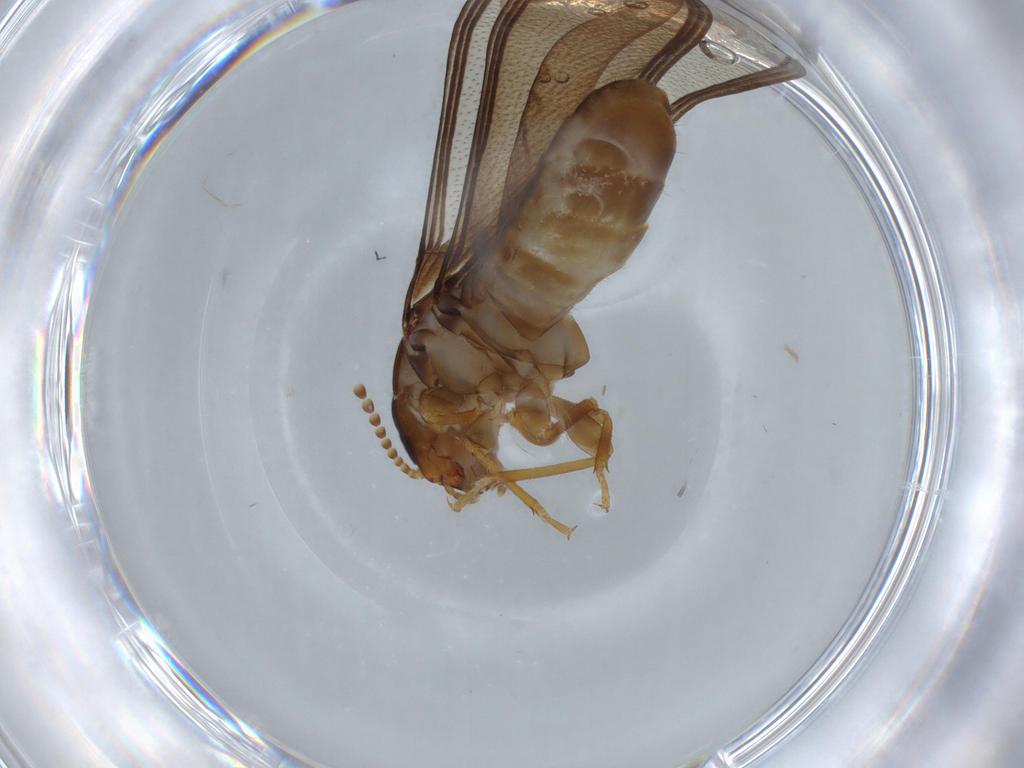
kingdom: Animalia
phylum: Arthropoda
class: Insecta
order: Blattodea
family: Kalotermitidae
